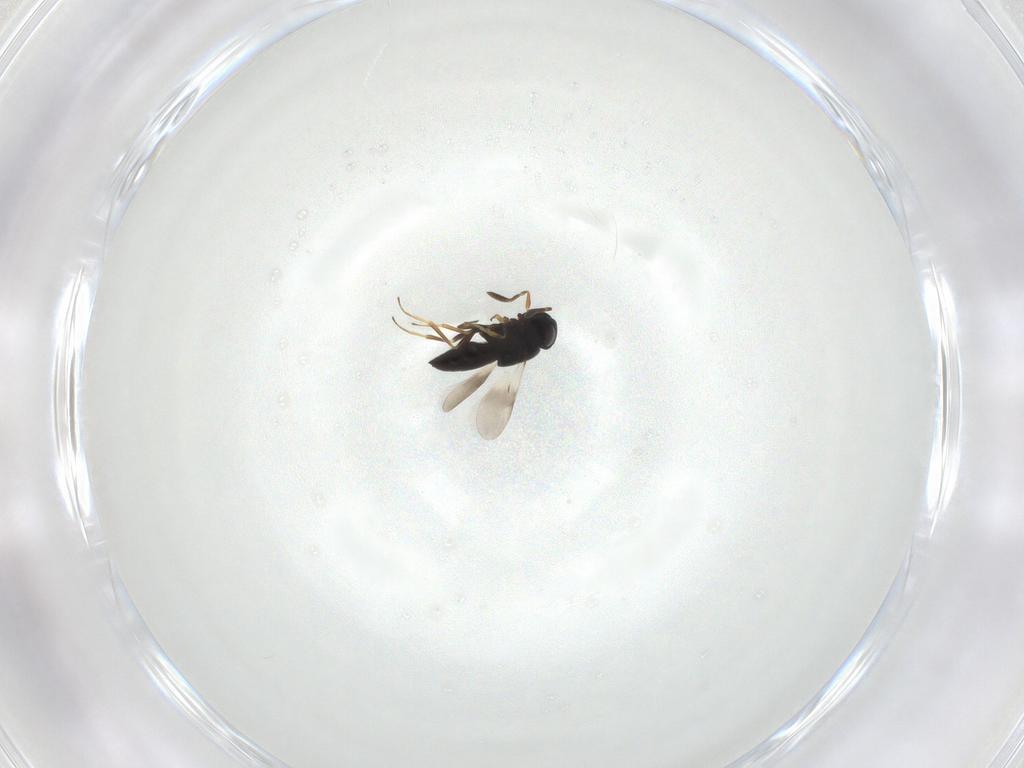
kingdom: Animalia
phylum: Arthropoda
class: Insecta
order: Hymenoptera
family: Scelionidae
